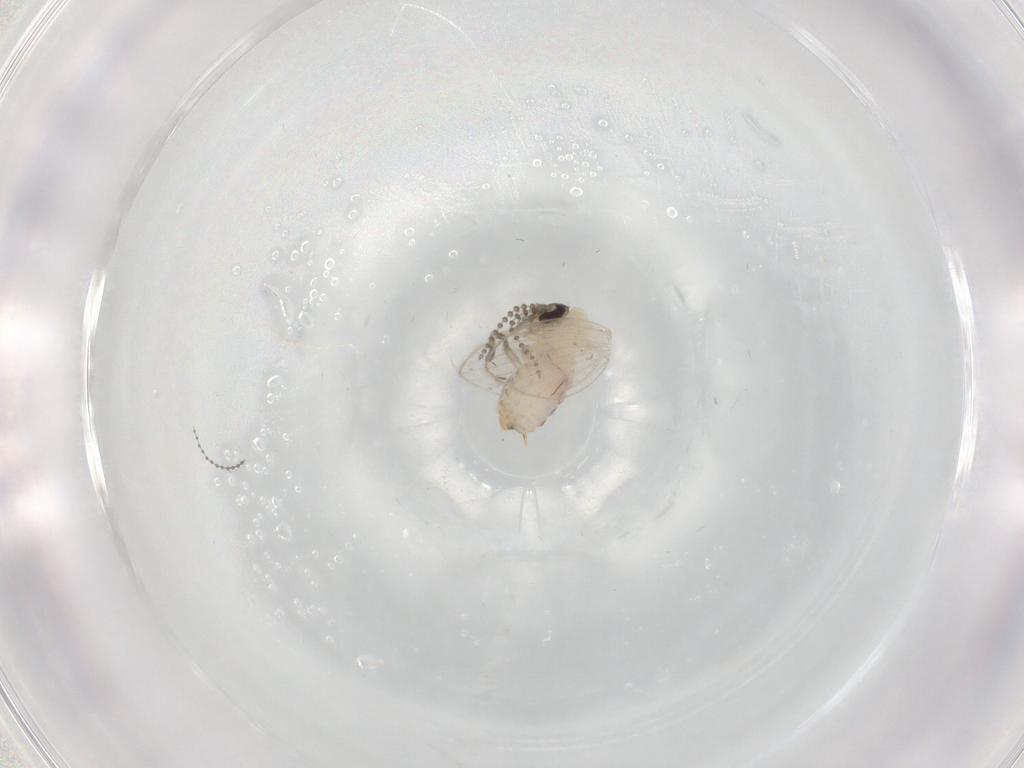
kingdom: Animalia
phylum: Arthropoda
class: Insecta
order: Diptera
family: Psychodidae
